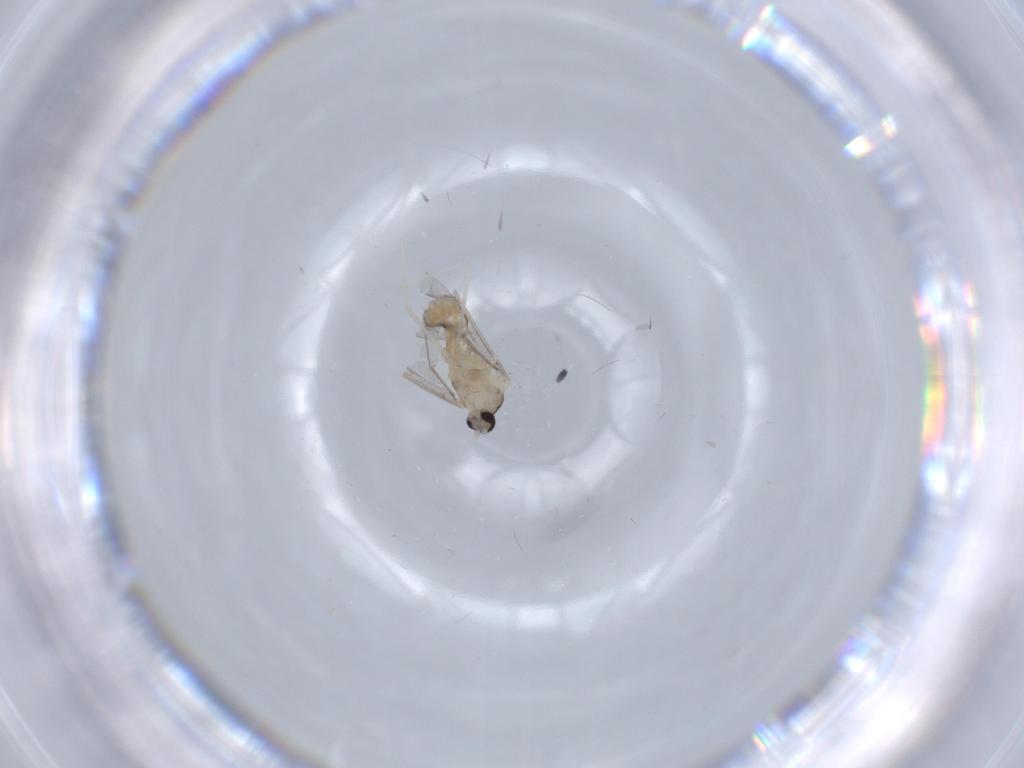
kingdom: Animalia
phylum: Arthropoda
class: Insecta
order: Diptera
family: Cecidomyiidae
